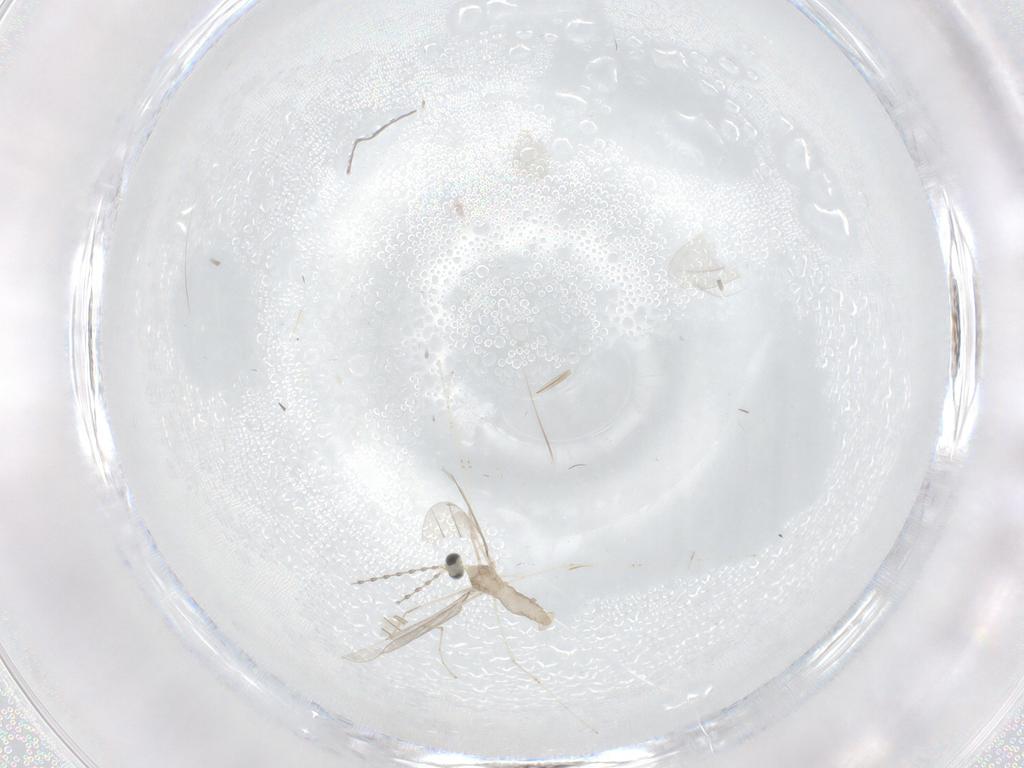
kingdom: Animalia
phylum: Arthropoda
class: Insecta
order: Diptera
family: Cecidomyiidae
